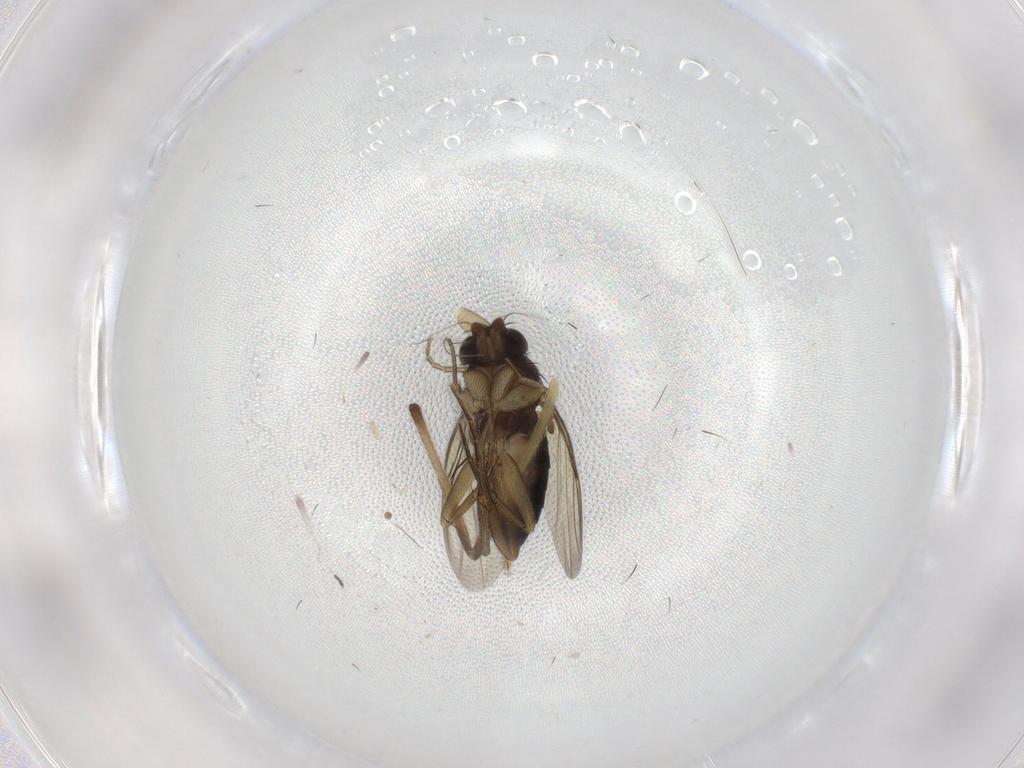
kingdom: Animalia
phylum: Arthropoda
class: Insecta
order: Diptera
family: Phoridae
